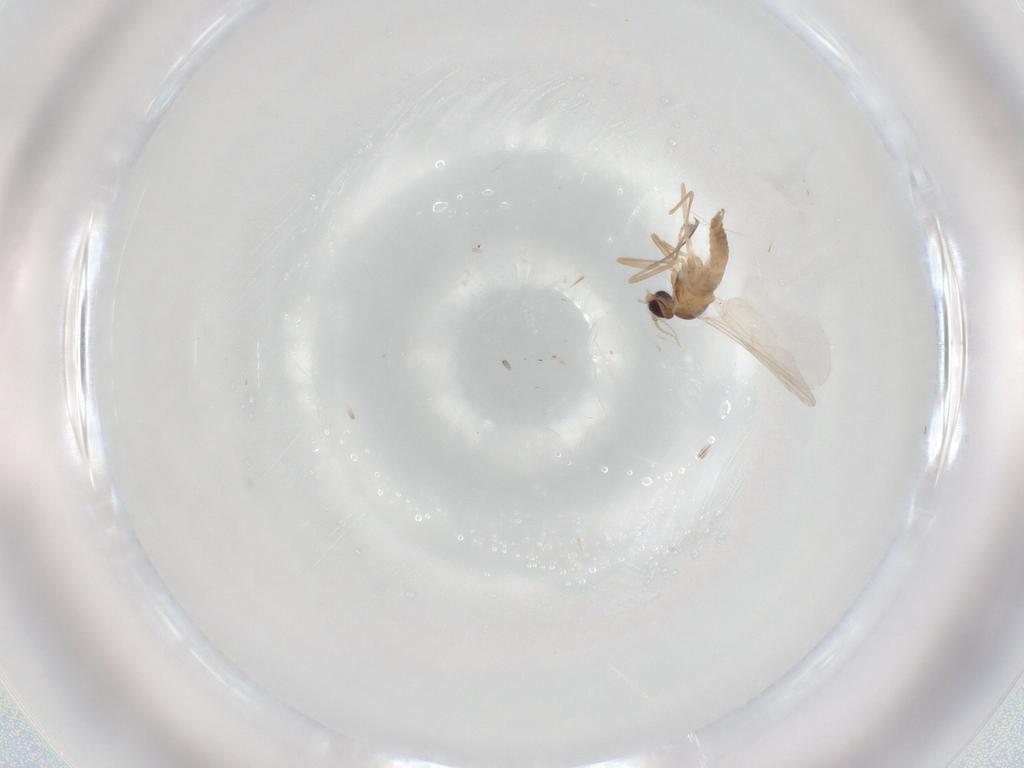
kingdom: Animalia
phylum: Arthropoda
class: Insecta
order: Diptera
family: Cecidomyiidae
